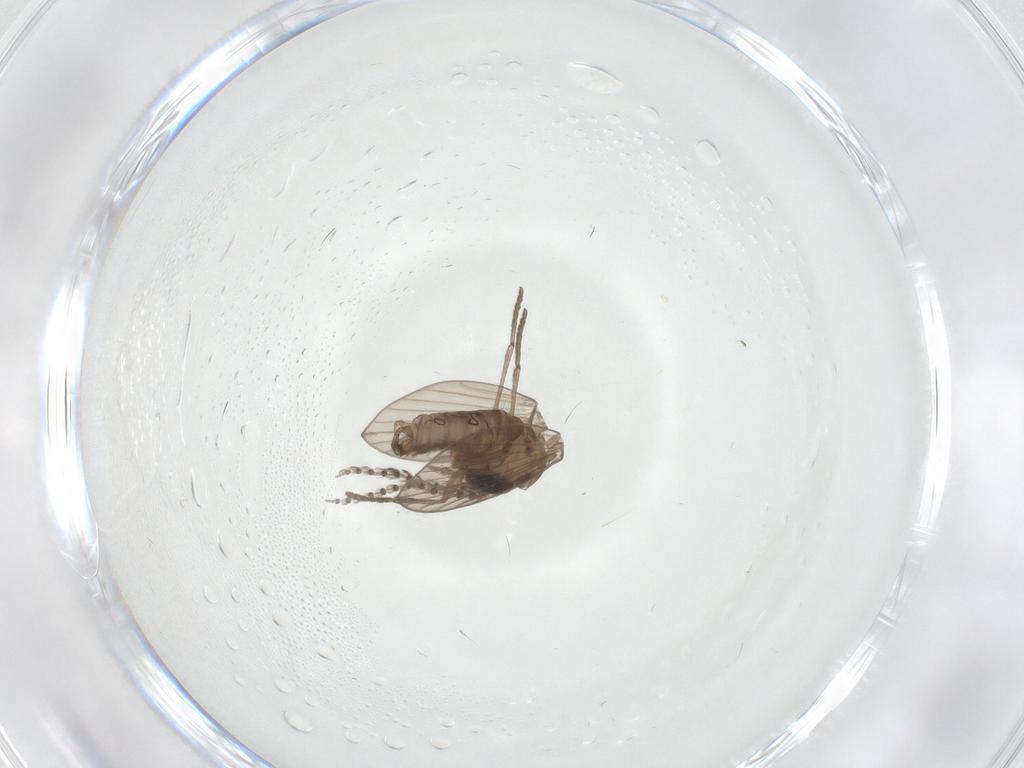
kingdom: Animalia
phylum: Arthropoda
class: Insecta
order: Diptera
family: Psychodidae
